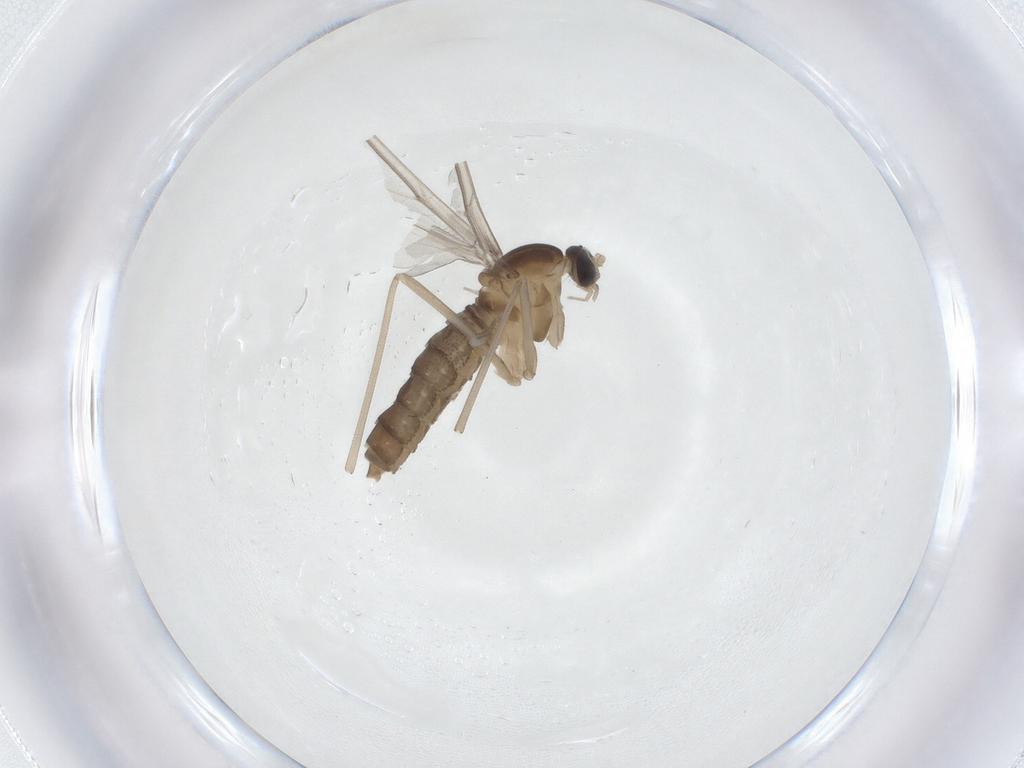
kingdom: Animalia
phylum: Arthropoda
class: Insecta
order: Diptera
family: Cecidomyiidae
